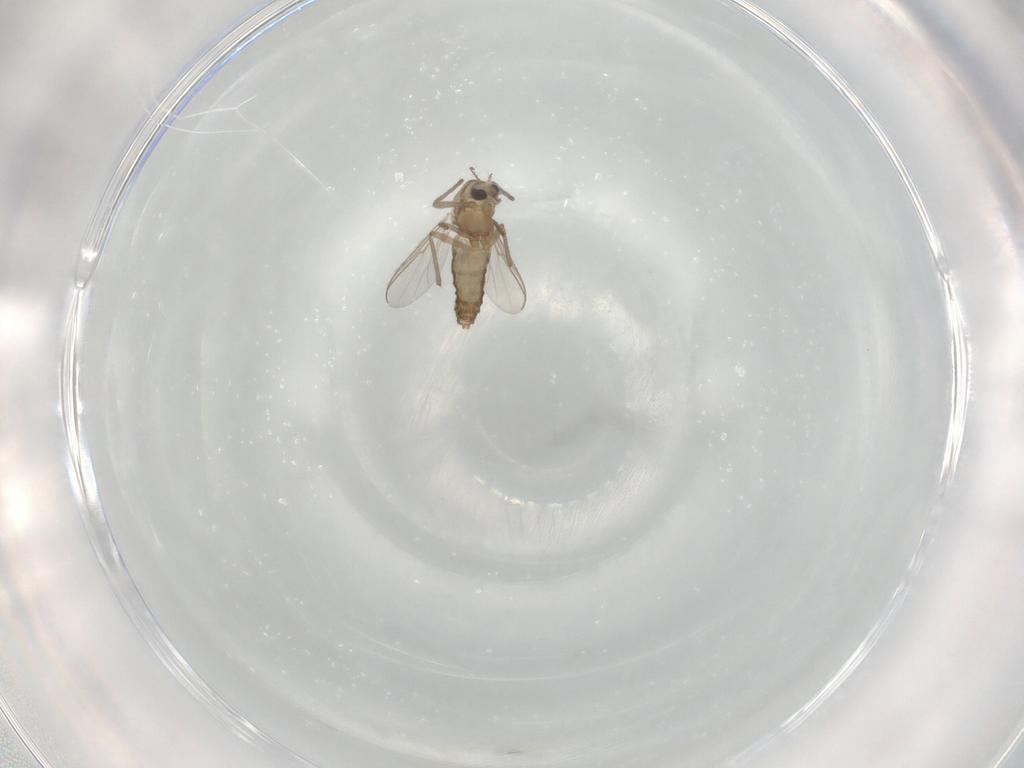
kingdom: Animalia
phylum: Arthropoda
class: Insecta
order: Diptera
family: Chironomidae
